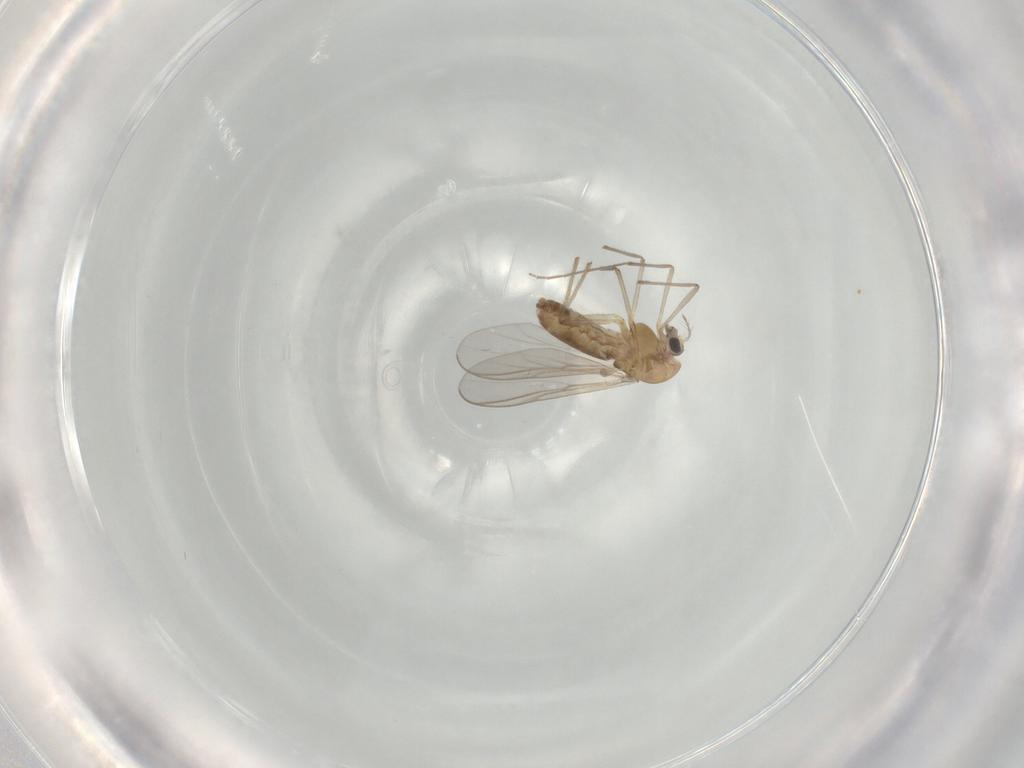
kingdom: Animalia
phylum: Arthropoda
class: Insecta
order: Diptera
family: Chironomidae
